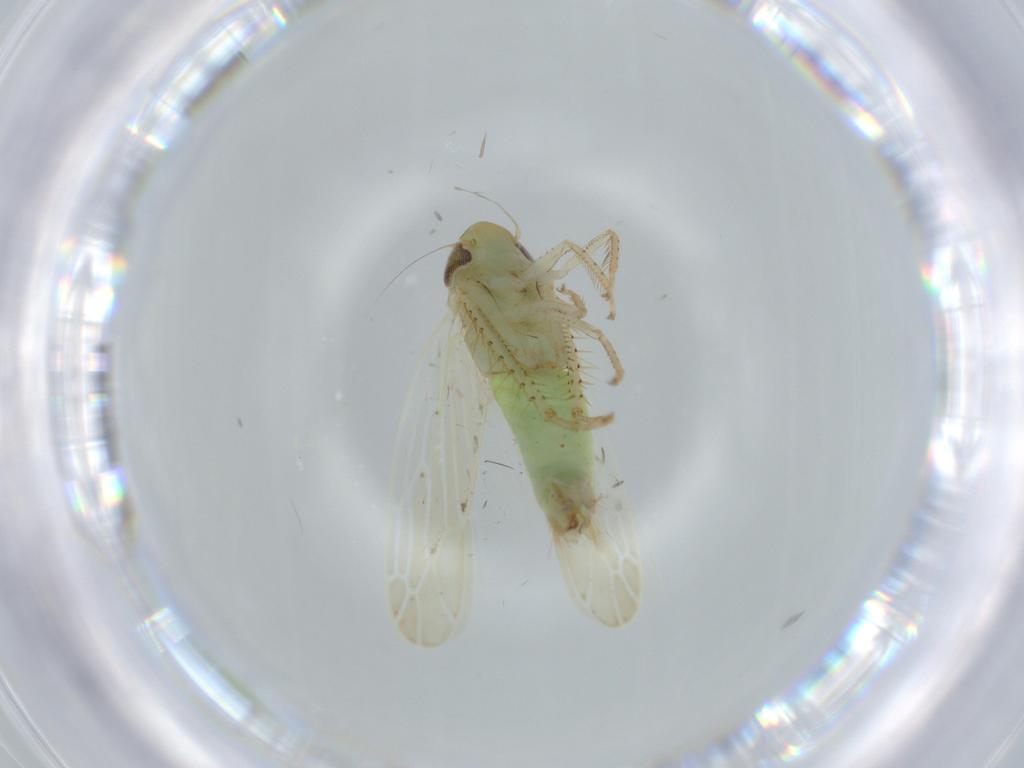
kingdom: Animalia
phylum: Arthropoda
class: Insecta
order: Hemiptera
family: Cicadellidae
